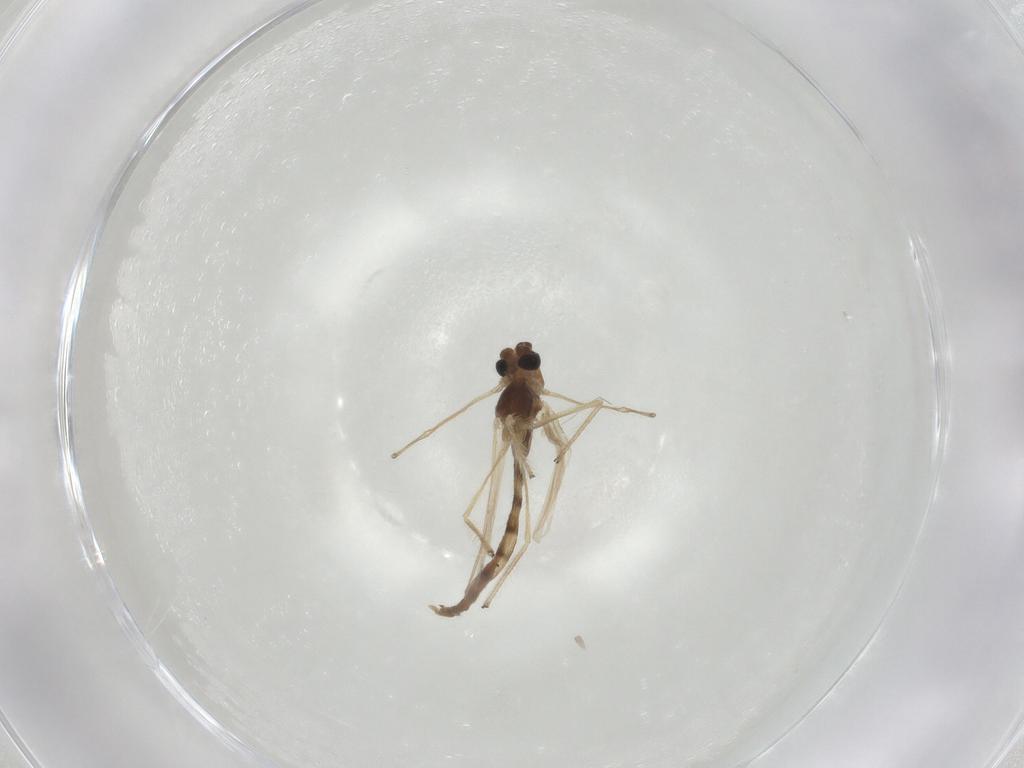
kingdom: Animalia
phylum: Arthropoda
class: Insecta
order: Diptera
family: Chironomidae
